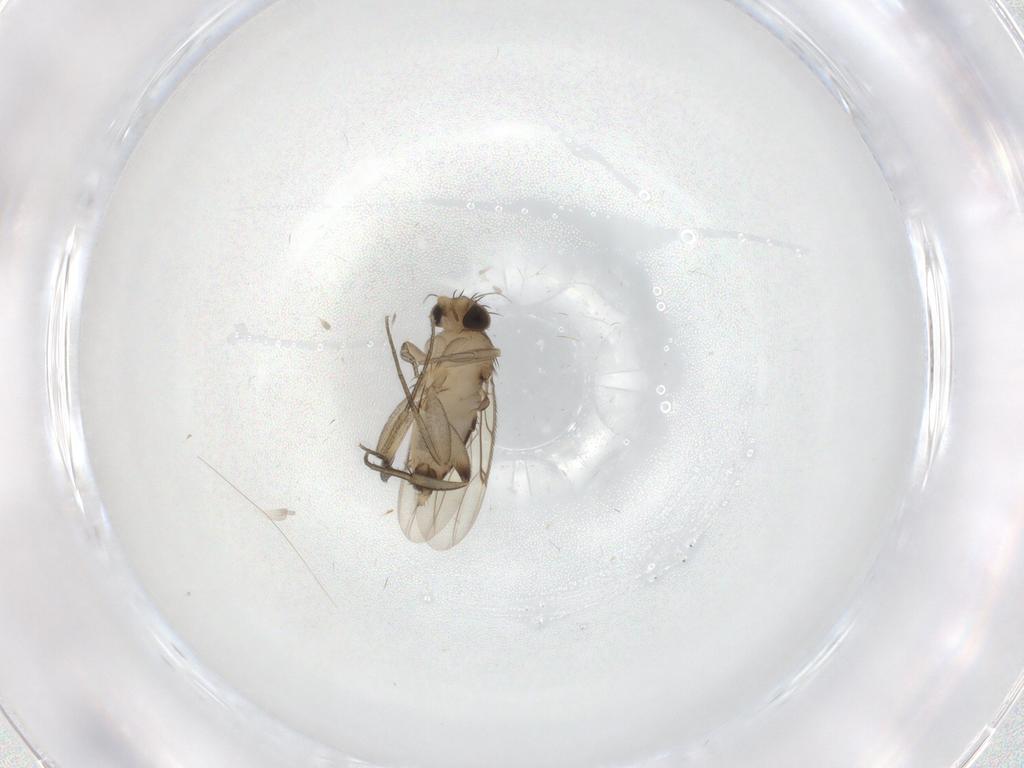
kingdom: Animalia
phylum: Arthropoda
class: Insecta
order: Diptera
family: Phoridae
